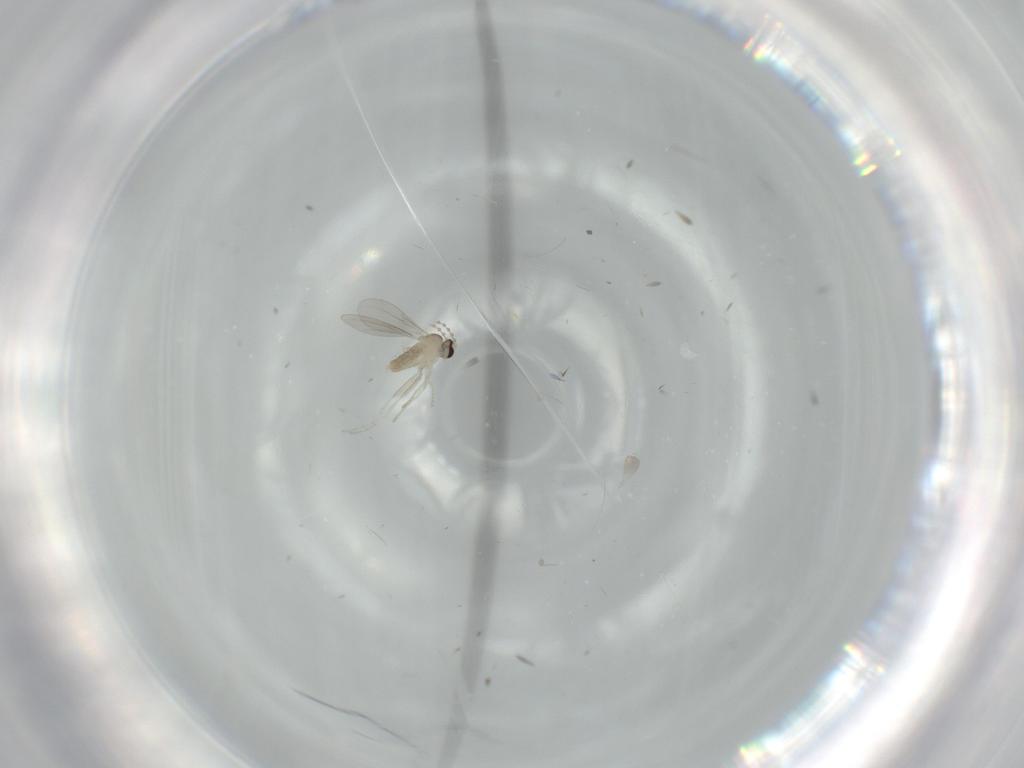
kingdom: Animalia
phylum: Arthropoda
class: Insecta
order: Diptera
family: Cecidomyiidae
